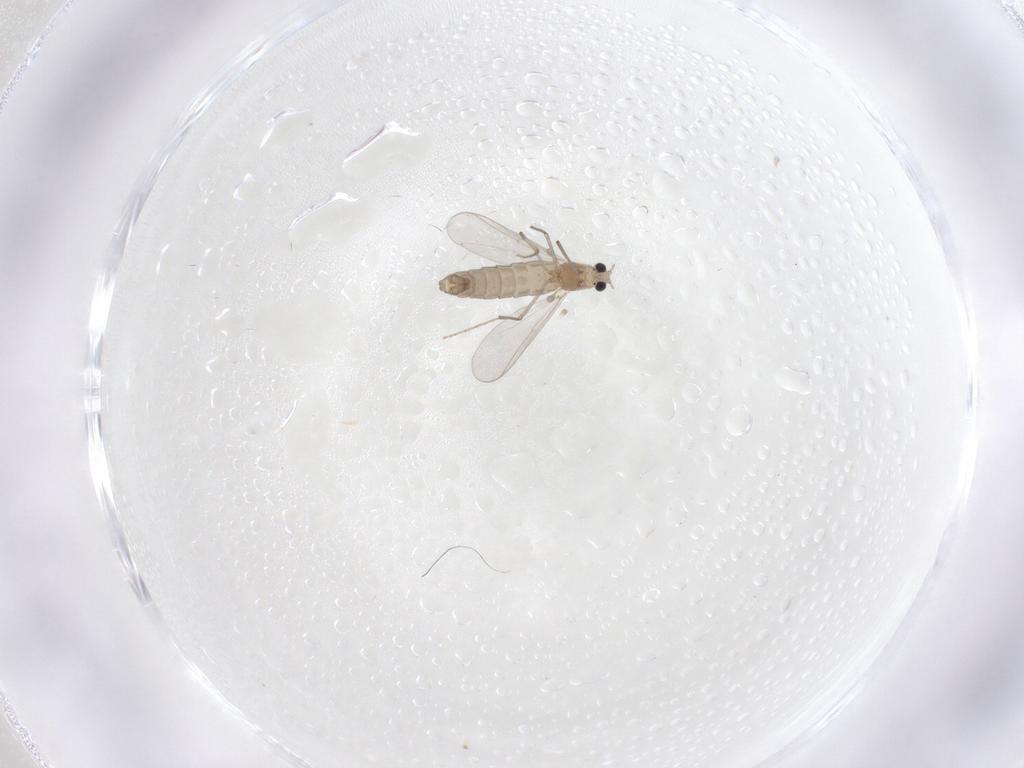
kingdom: Animalia
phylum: Arthropoda
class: Insecta
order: Diptera
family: Chironomidae
